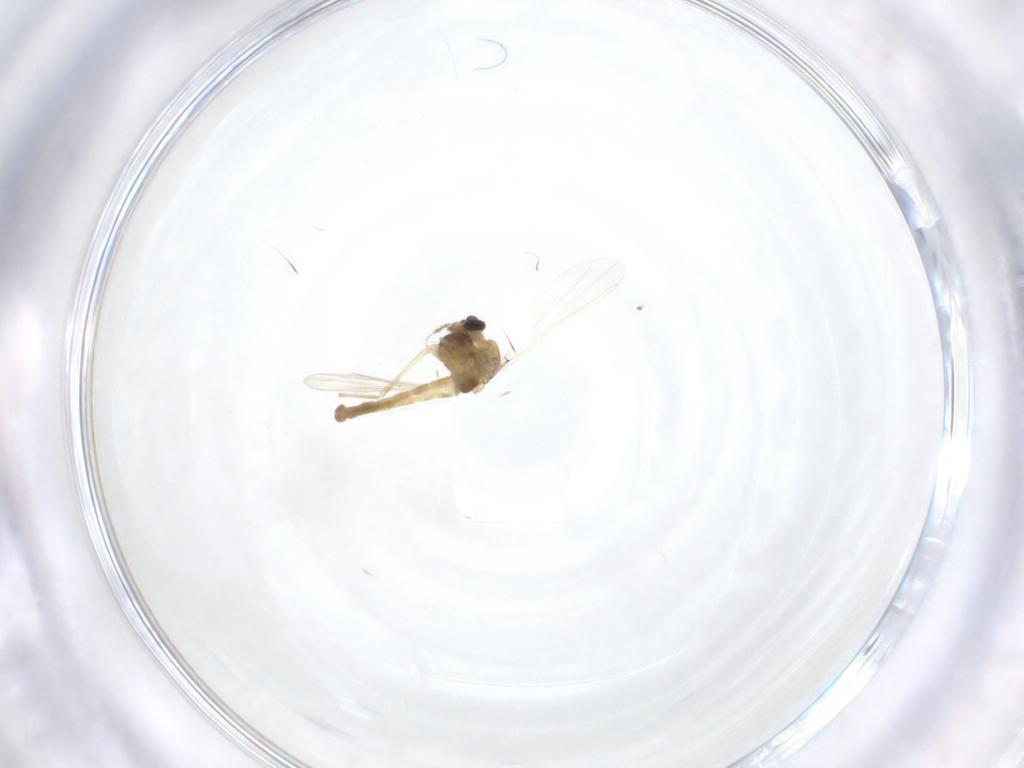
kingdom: Animalia
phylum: Arthropoda
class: Insecta
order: Diptera
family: Chironomidae
